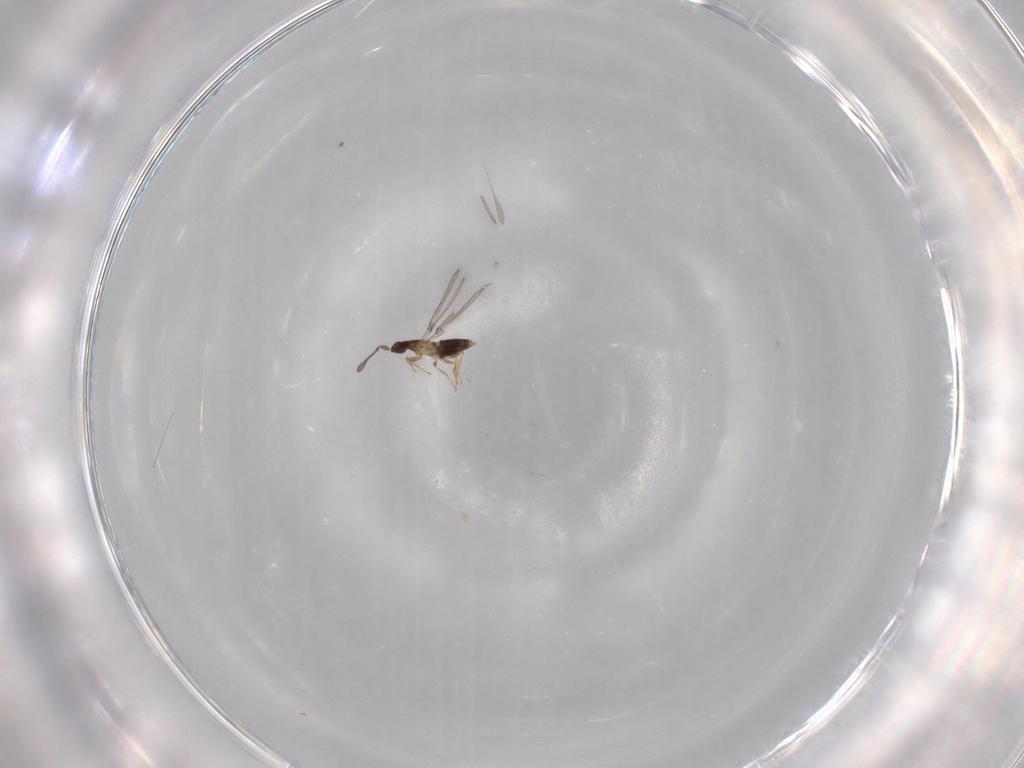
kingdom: Animalia
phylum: Arthropoda
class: Insecta
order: Hymenoptera
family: Mymaridae
